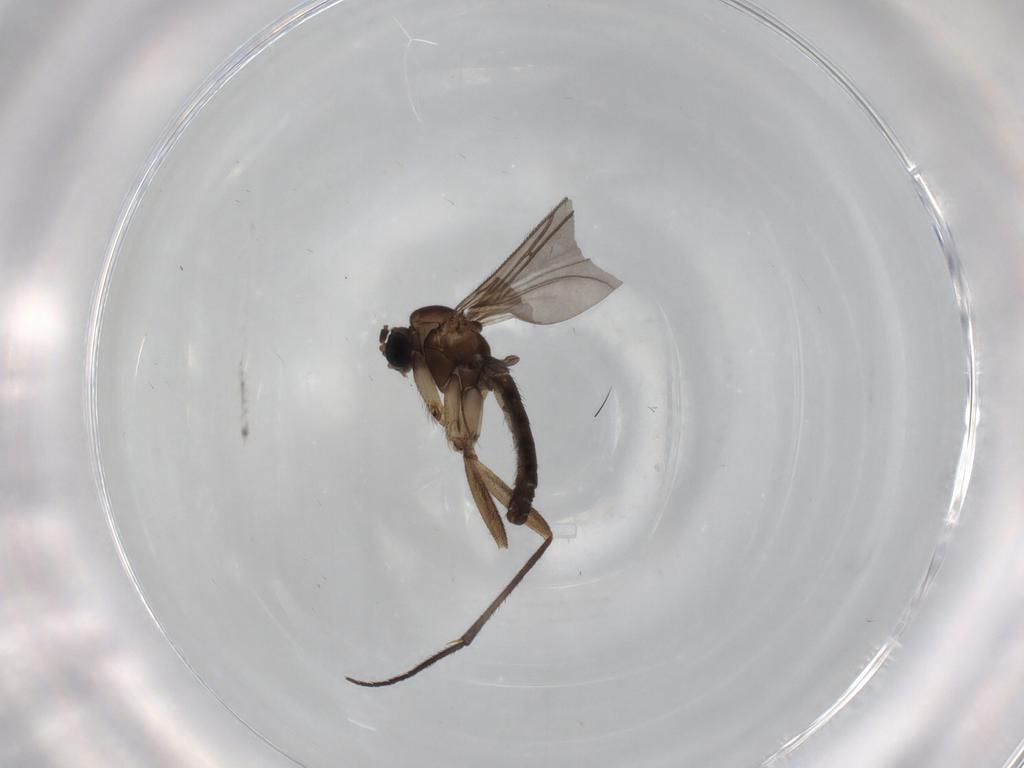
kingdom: Animalia
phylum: Arthropoda
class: Insecta
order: Diptera
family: Sciaridae
